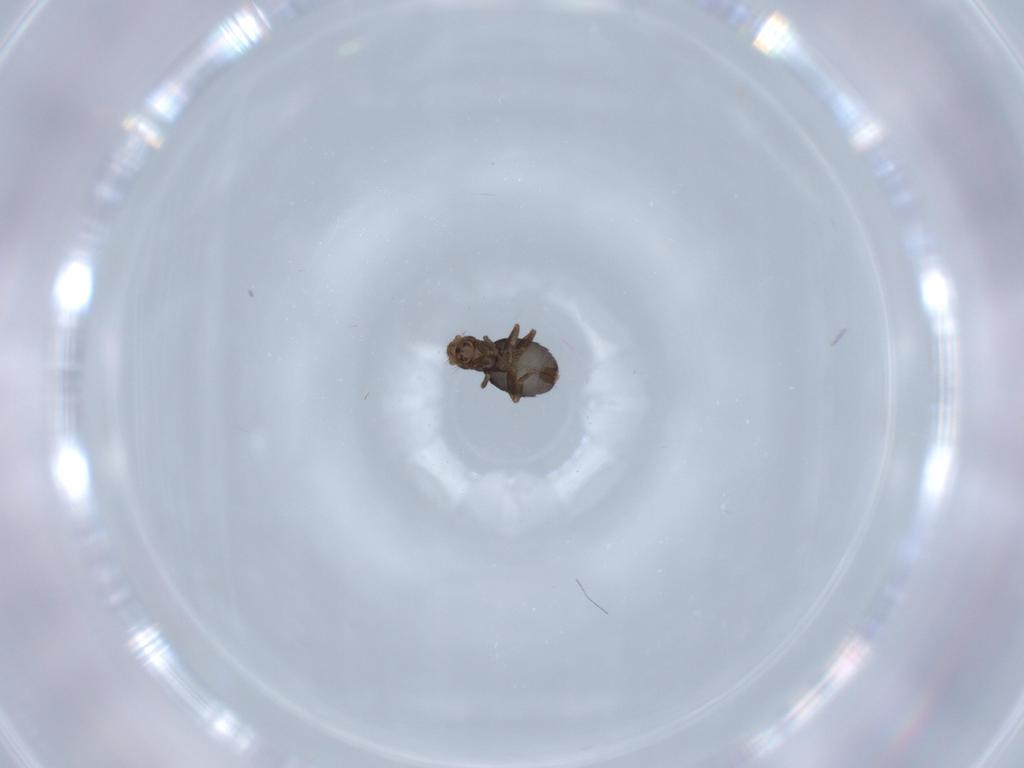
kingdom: Animalia
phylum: Arthropoda
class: Insecta
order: Diptera
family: Phoridae
